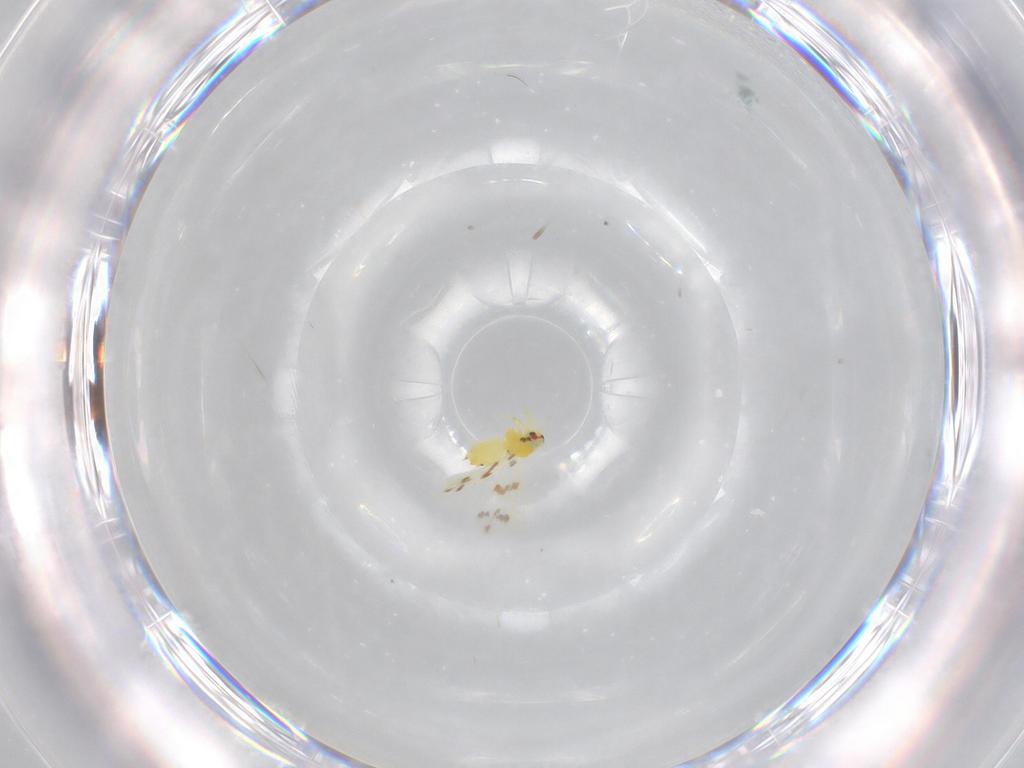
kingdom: Animalia
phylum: Arthropoda
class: Insecta
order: Hemiptera
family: Aleyrodidae
